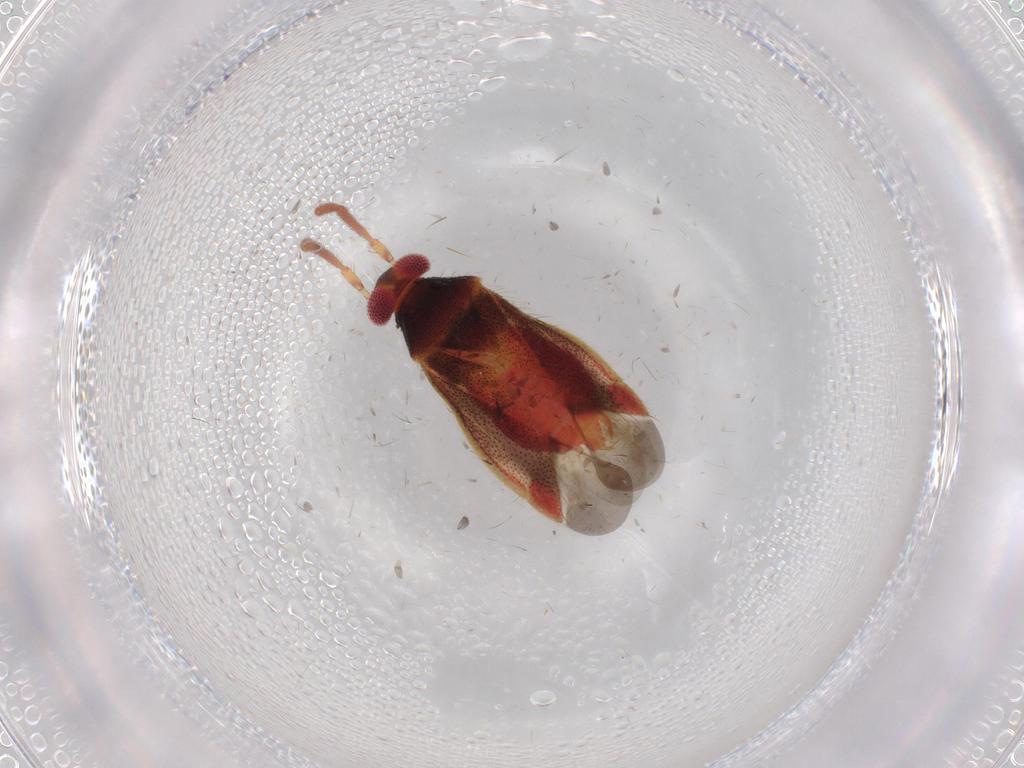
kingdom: Animalia
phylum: Arthropoda
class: Insecta
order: Hemiptera
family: Miridae
